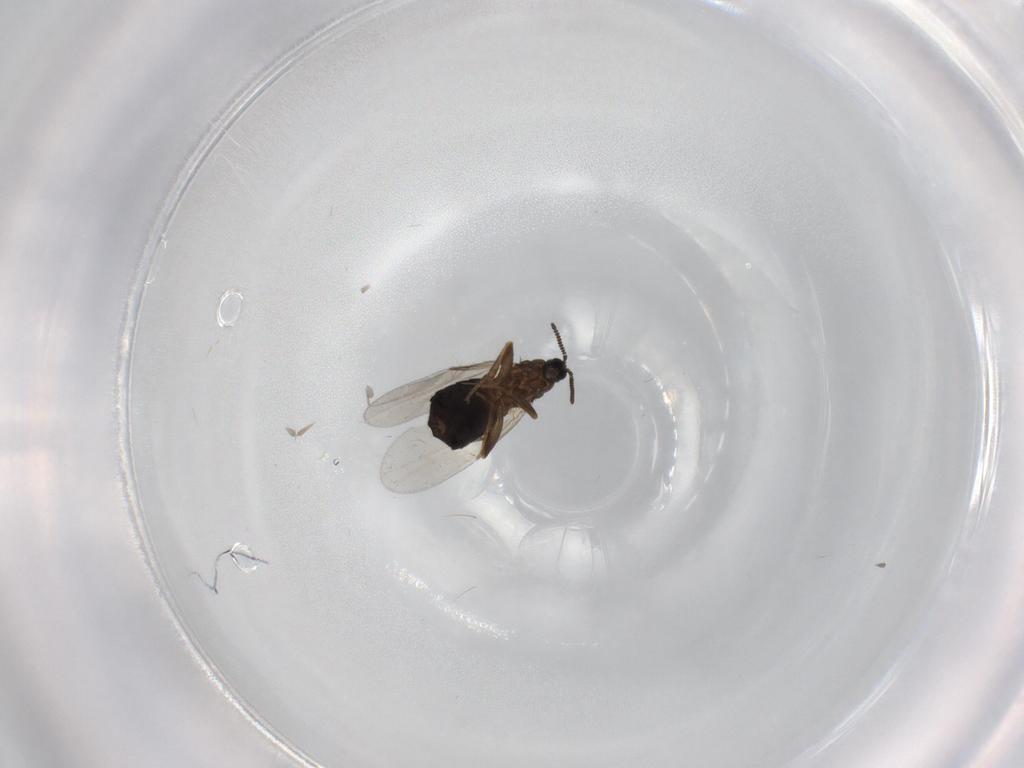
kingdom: Animalia
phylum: Arthropoda
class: Insecta
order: Diptera
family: Scatopsidae
